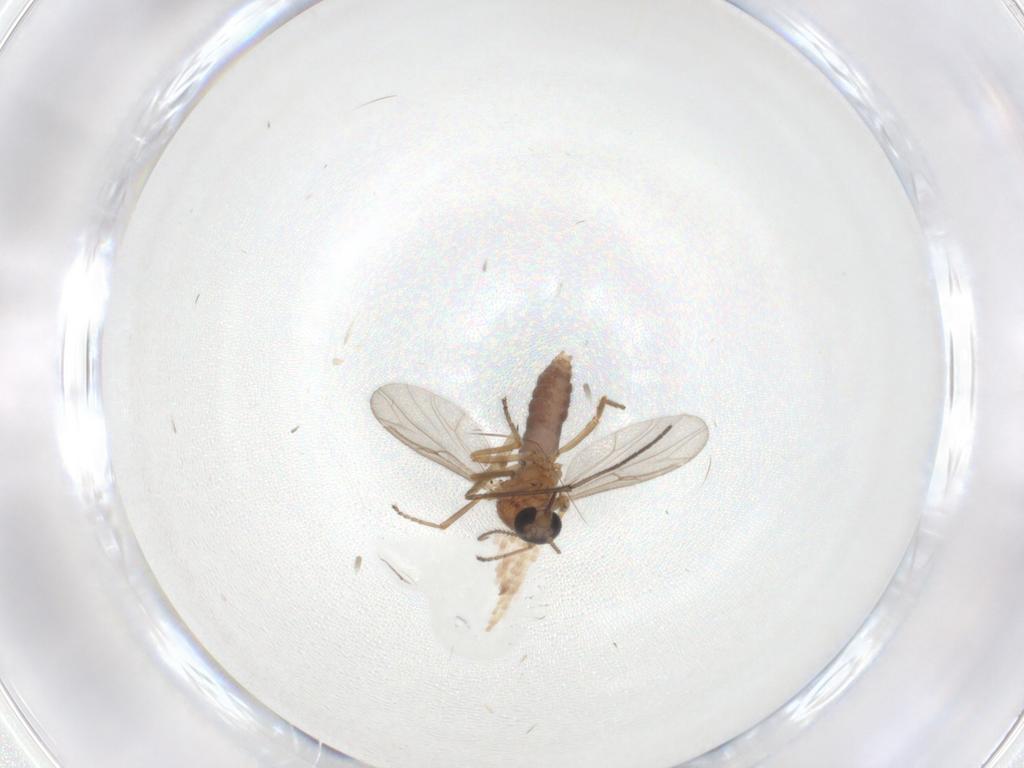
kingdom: Animalia
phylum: Arthropoda
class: Insecta
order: Diptera
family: Ceratopogonidae
